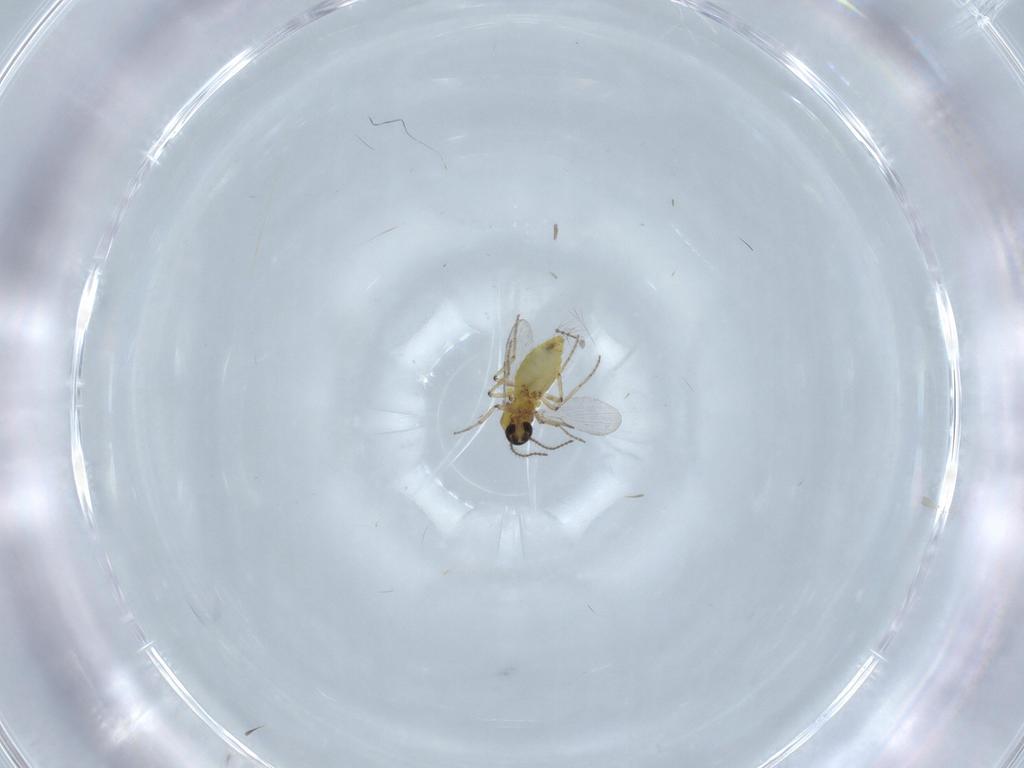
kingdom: Animalia
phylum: Arthropoda
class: Insecta
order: Diptera
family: Ceratopogonidae
